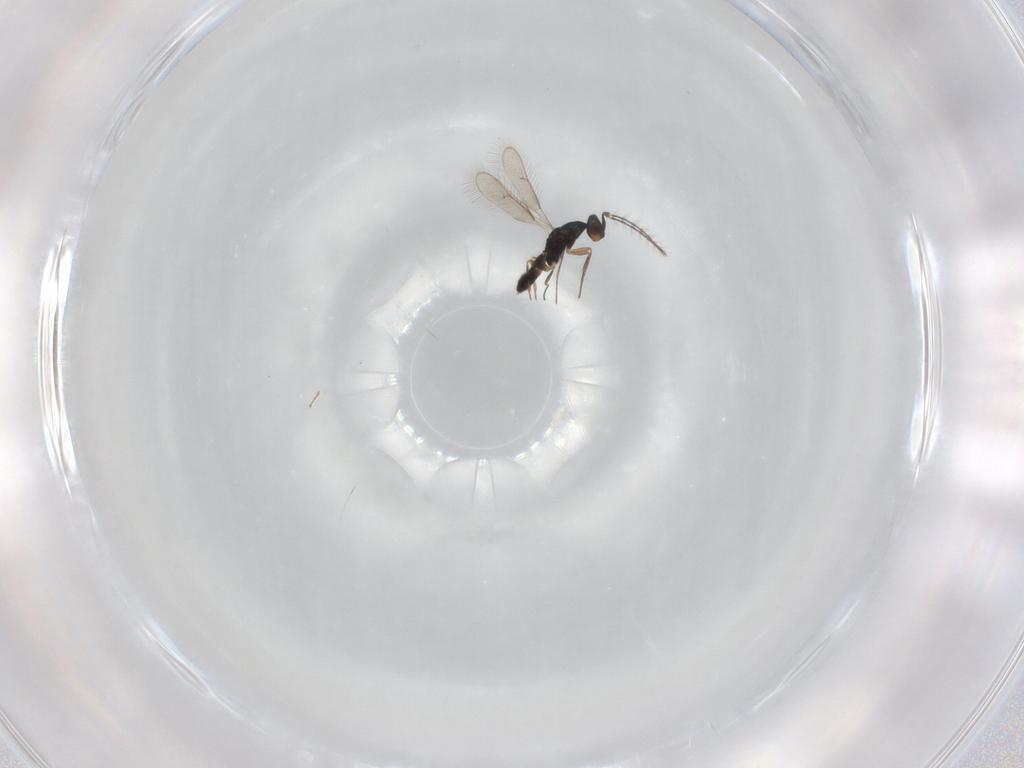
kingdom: Animalia
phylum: Arthropoda
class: Insecta
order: Hymenoptera
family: Pteromalidae
